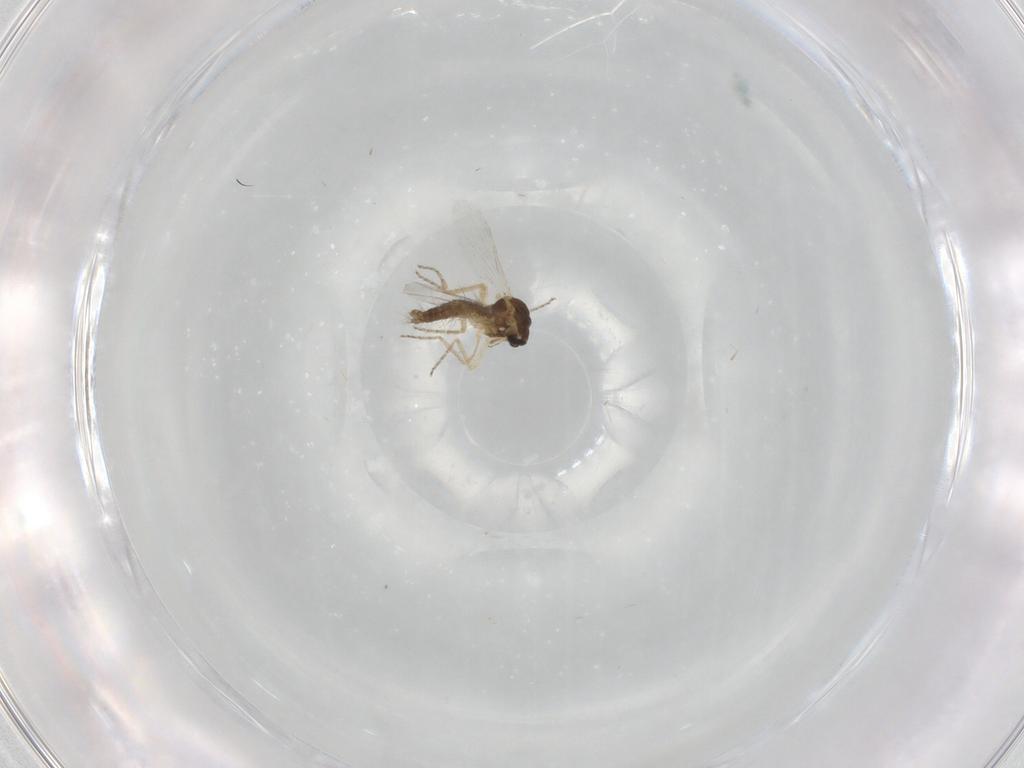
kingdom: Animalia
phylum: Arthropoda
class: Insecta
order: Diptera
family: Ceratopogonidae
